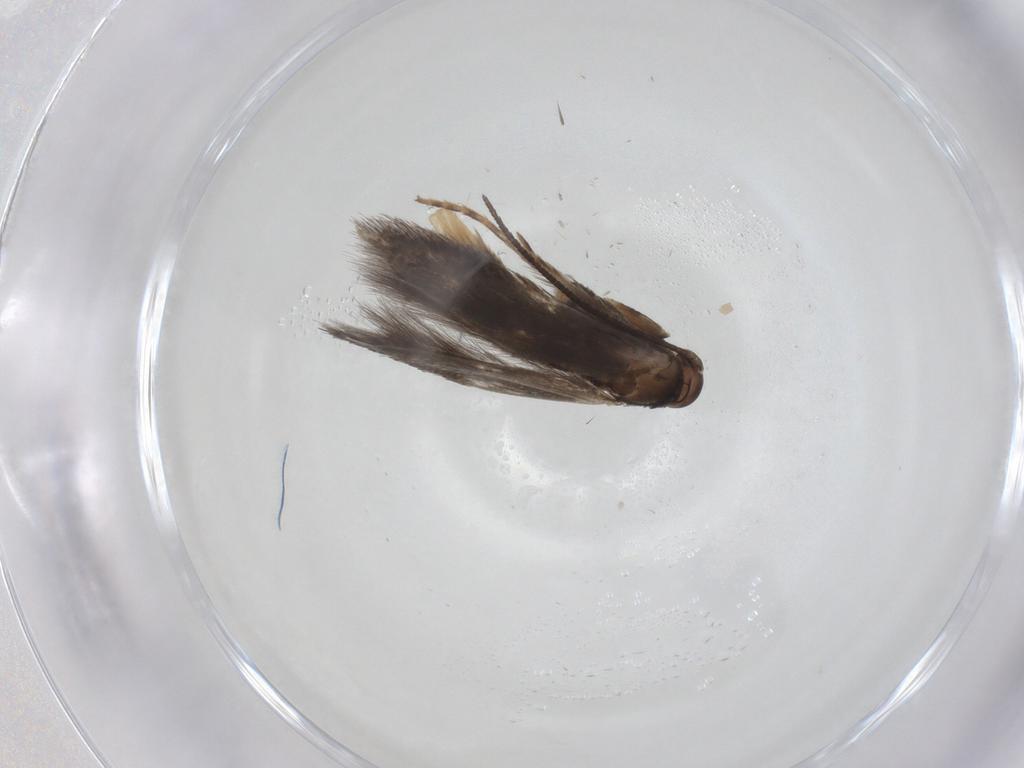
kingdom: Animalia
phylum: Arthropoda
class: Insecta
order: Lepidoptera
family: Elachistidae
